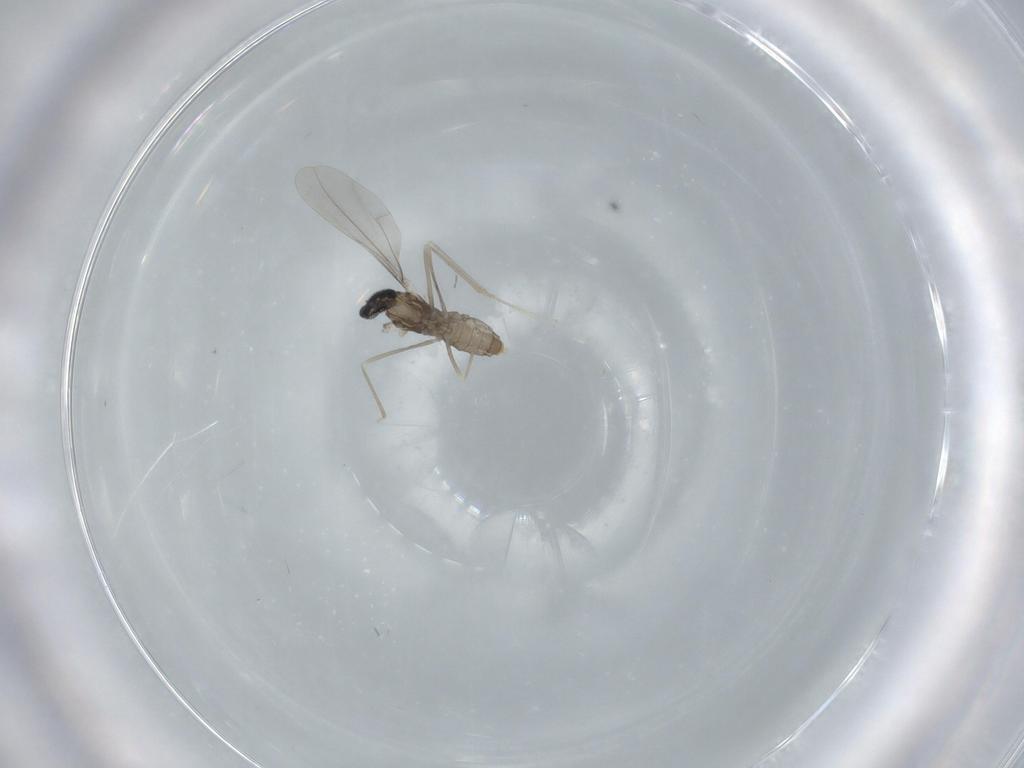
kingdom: Animalia
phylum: Arthropoda
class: Insecta
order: Diptera
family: Cecidomyiidae
